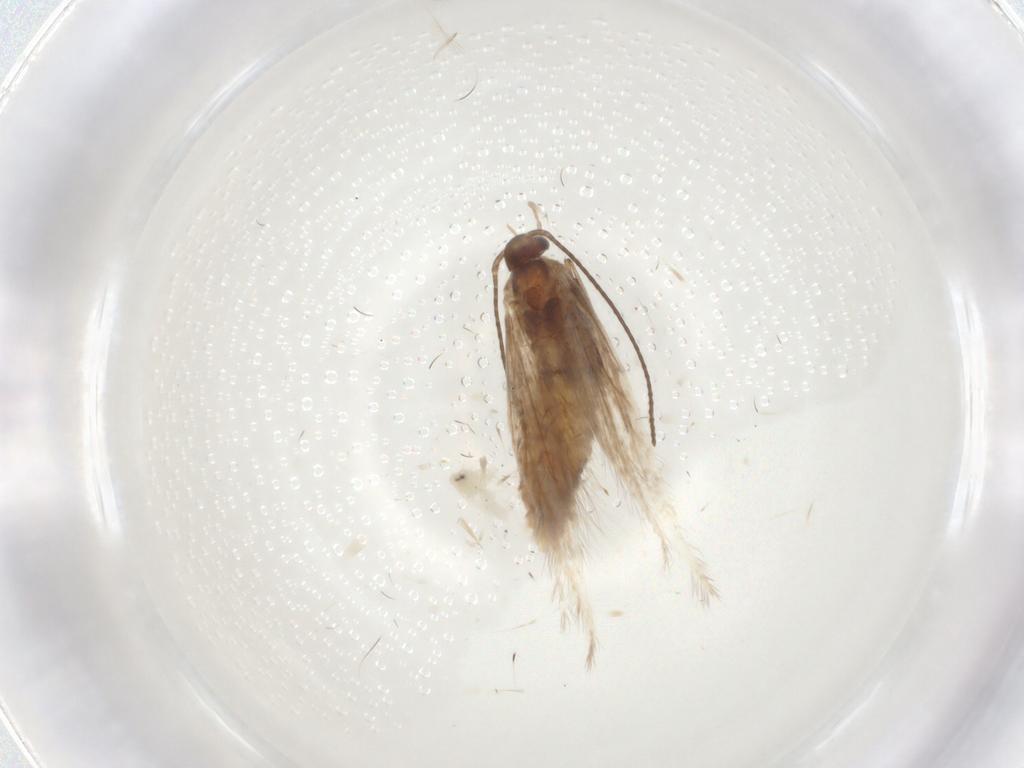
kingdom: Animalia
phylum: Arthropoda
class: Insecta
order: Lepidoptera
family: Coleophoridae
